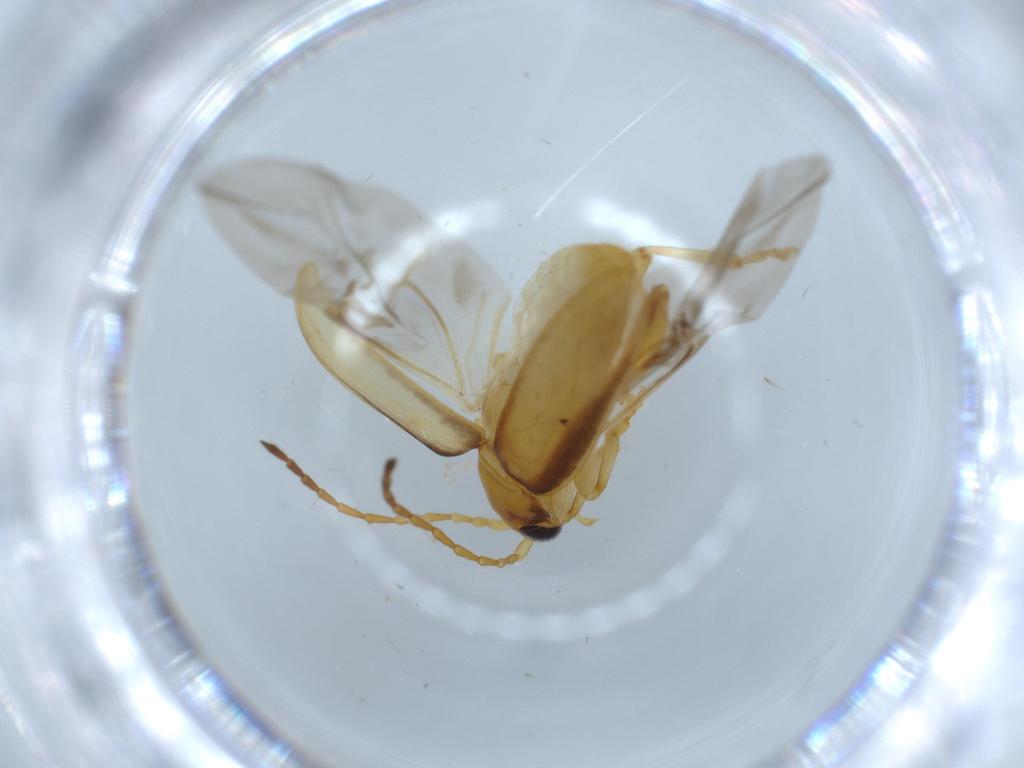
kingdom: Animalia
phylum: Arthropoda
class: Insecta
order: Coleoptera
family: Chrysomelidae
